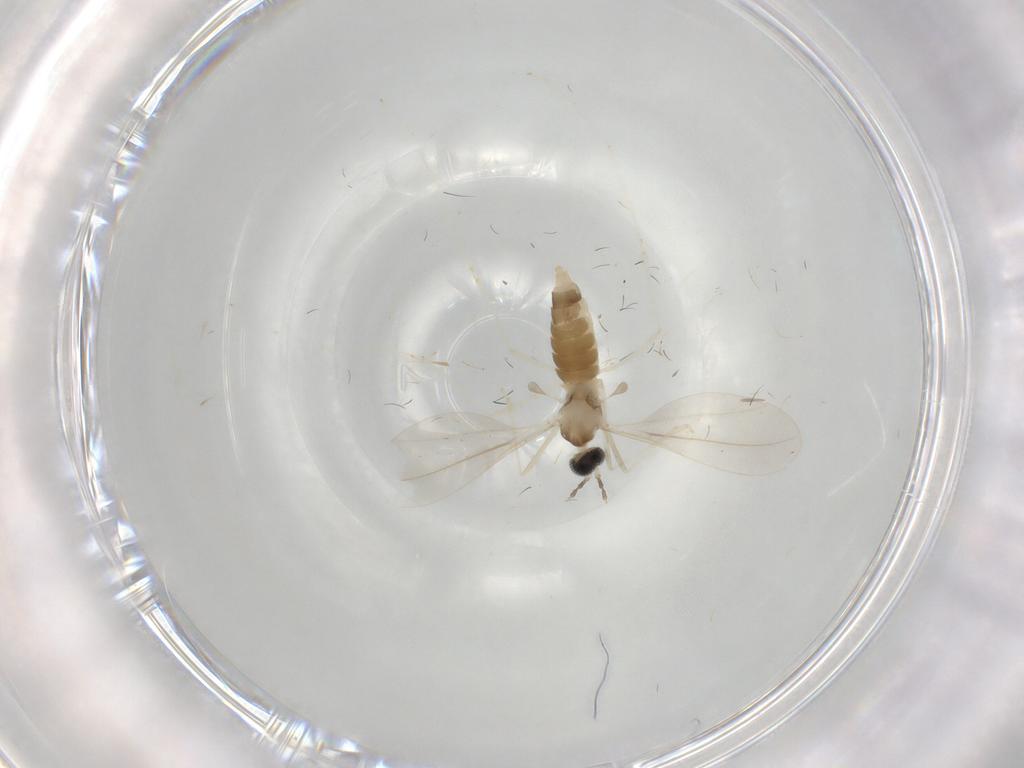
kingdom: Animalia
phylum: Arthropoda
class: Insecta
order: Diptera
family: Cecidomyiidae
